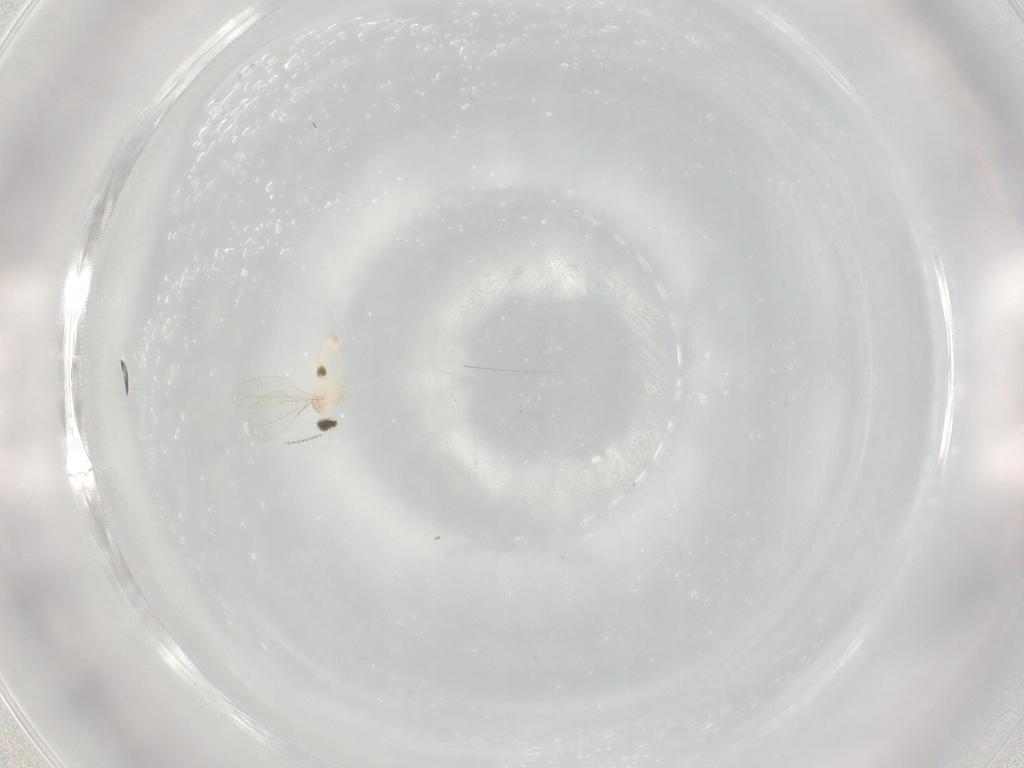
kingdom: Animalia
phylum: Arthropoda
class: Insecta
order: Diptera
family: Cecidomyiidae
